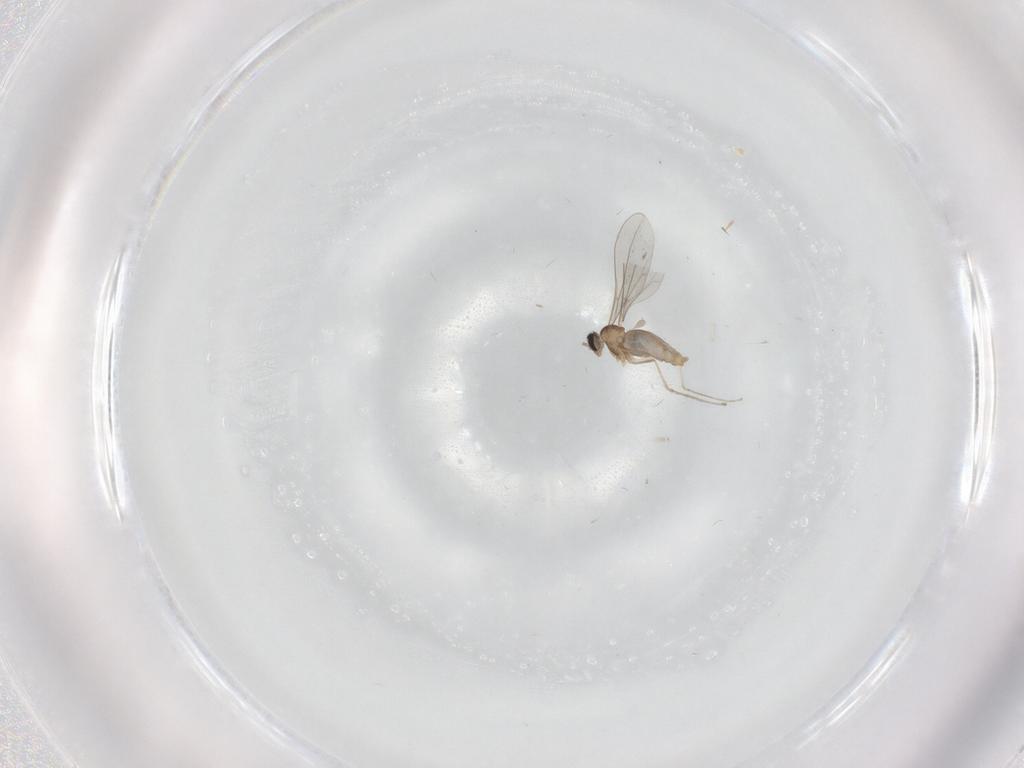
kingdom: Animalia
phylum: Arthropoda
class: Insecta
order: Diptera
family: Cecidomyiidae
